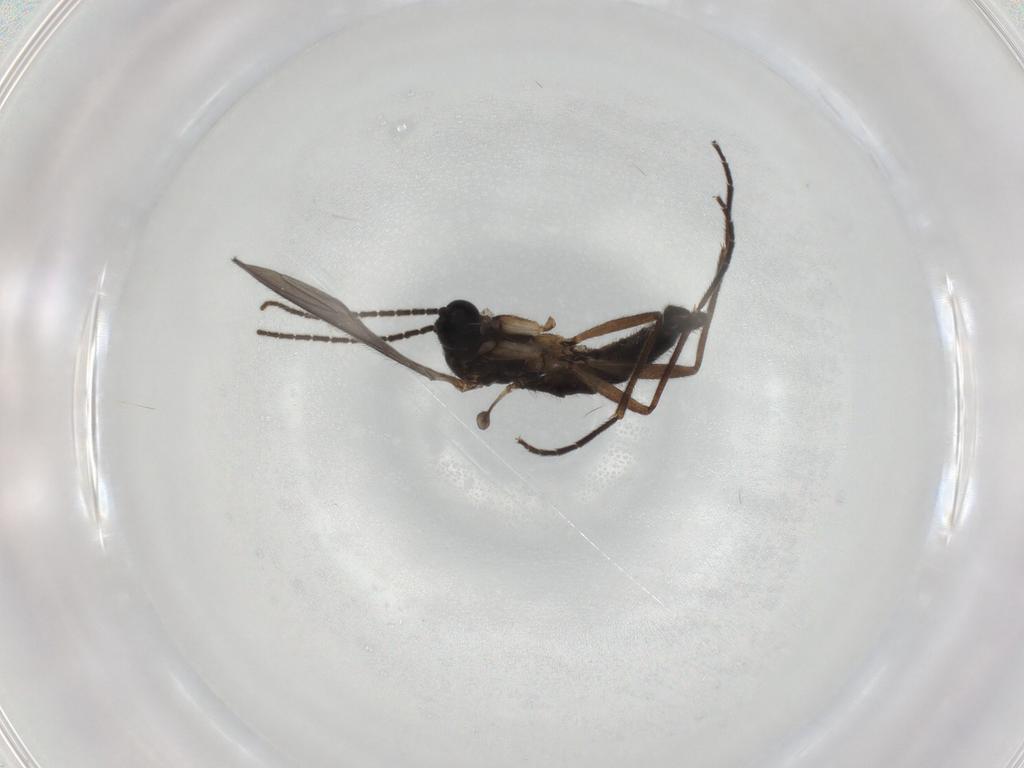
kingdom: Animalia
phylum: Arthropoda
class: Insecta
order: Diptera
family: Sciaridae
